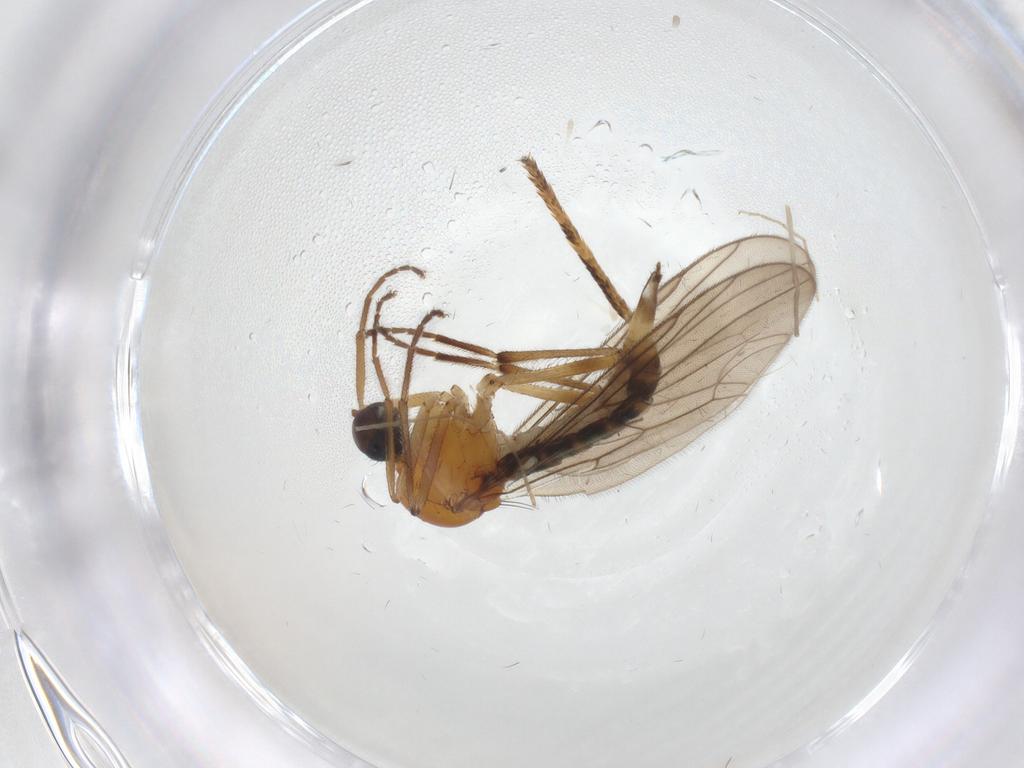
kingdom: Animalia
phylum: Arthropoda
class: Insecta
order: Diptera
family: Hybotidae
